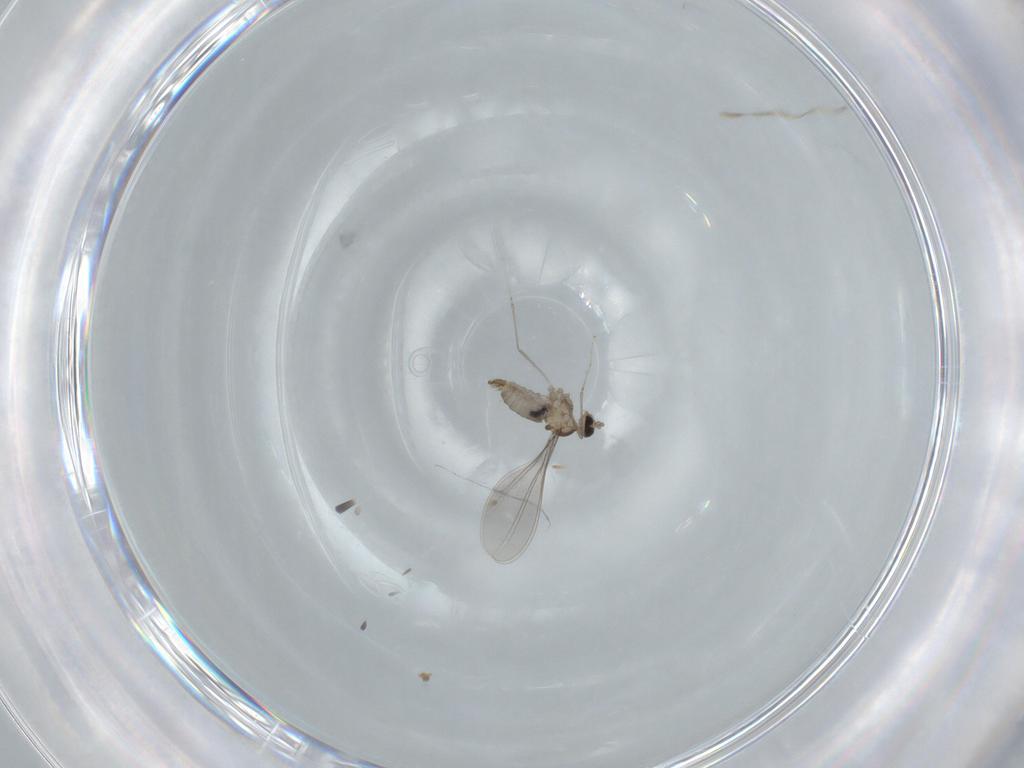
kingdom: Animalia
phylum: Arthropoda
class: Insecta
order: Diptera
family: Cecidomyiidae
